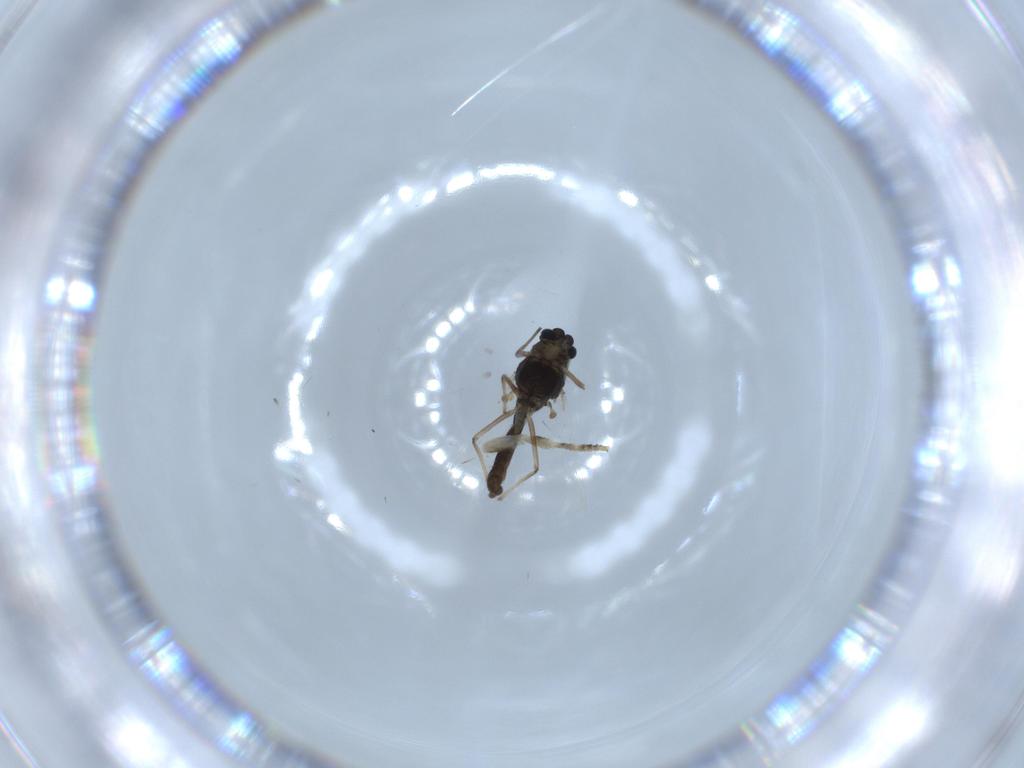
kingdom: Animalia
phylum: Arthropoda
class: Insecta
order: Diptera
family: Chironomidae
